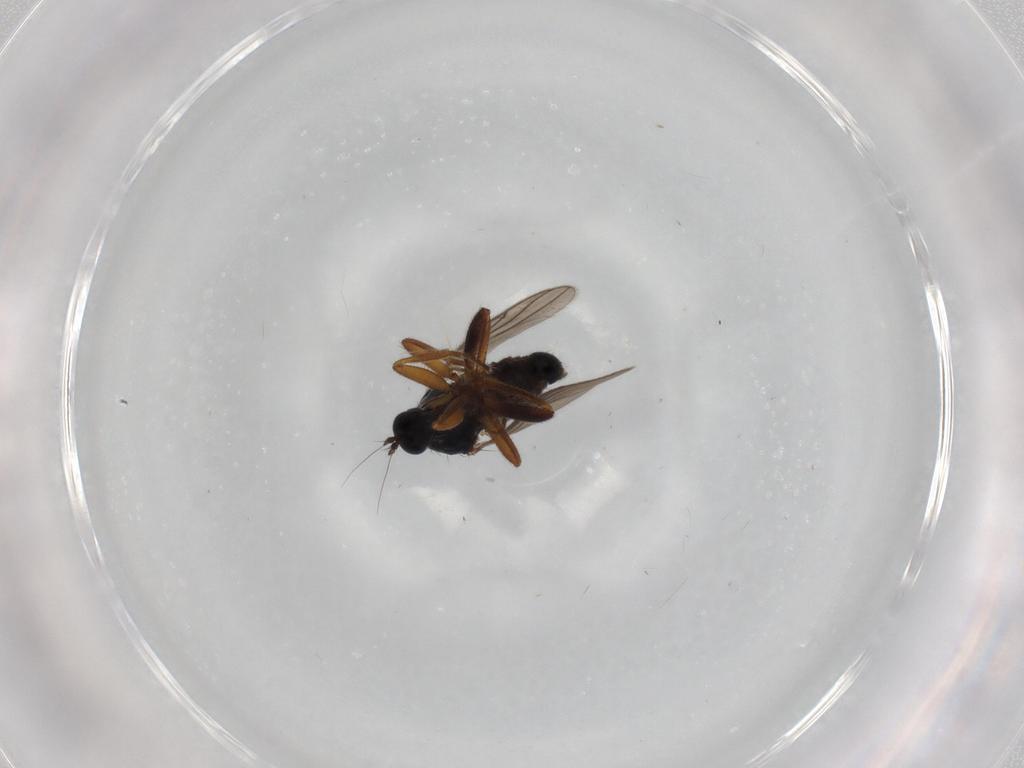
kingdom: Animalia
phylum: Arthropoda
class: Insecta
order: Diptera
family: Hybotidae
